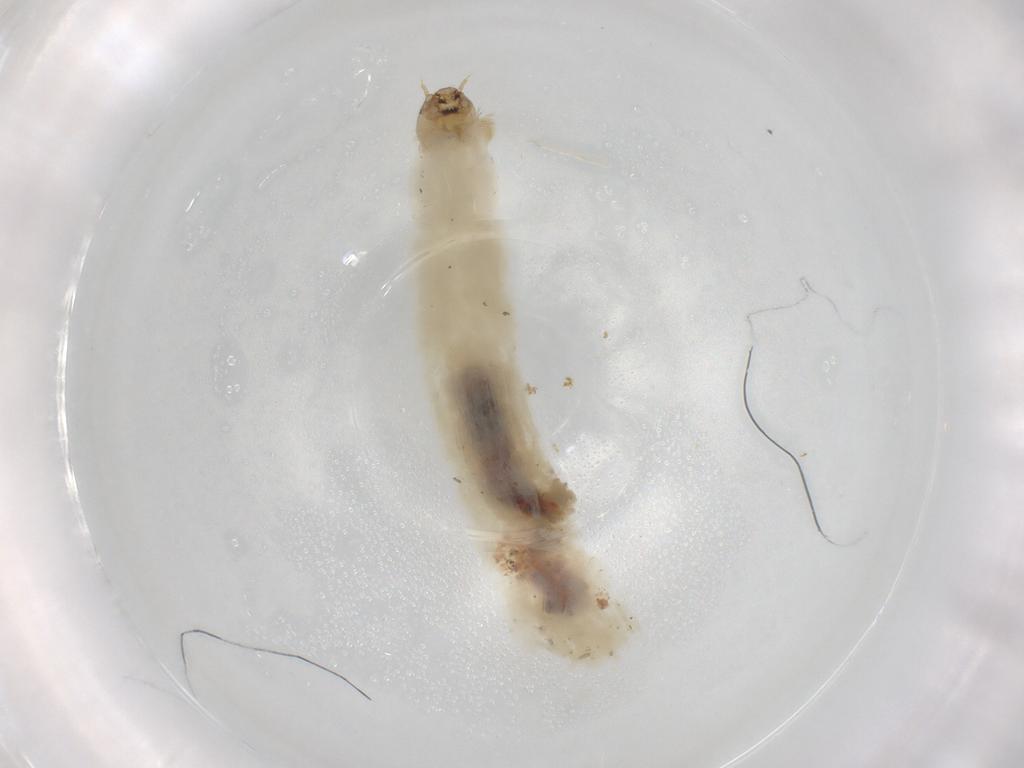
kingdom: Animalia
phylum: Arthropoda
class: Insecta
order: Diptera
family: Chironomidae
